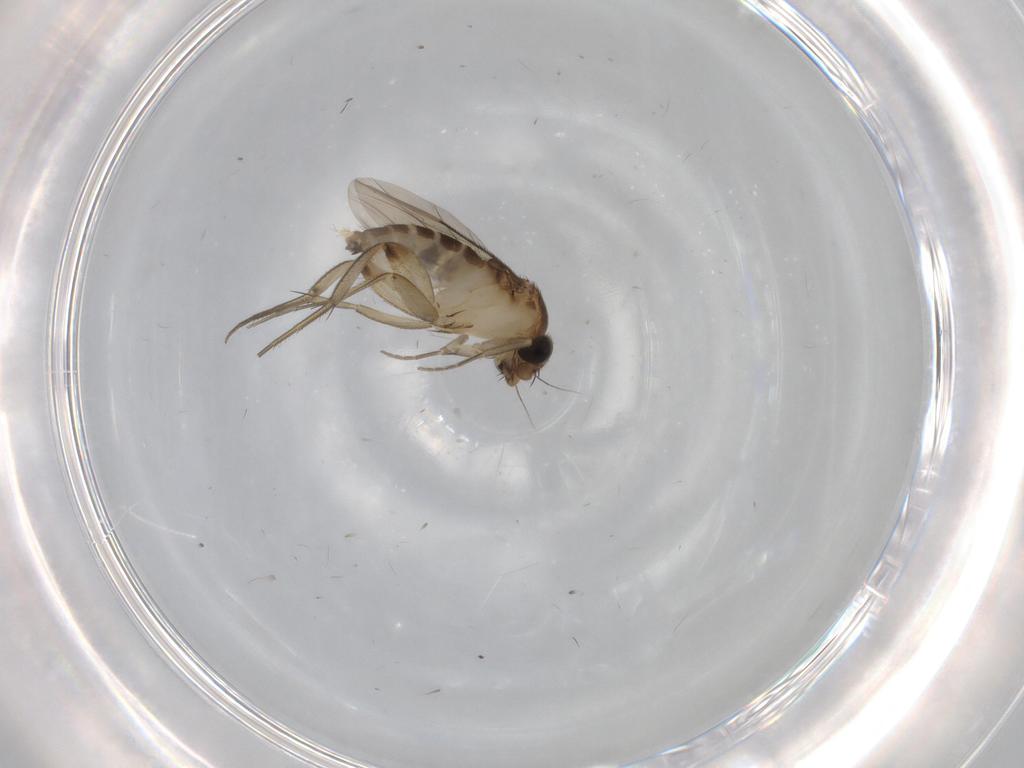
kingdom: Animalia
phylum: Arthropoda
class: Insecta
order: Diptera
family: Phoridae
